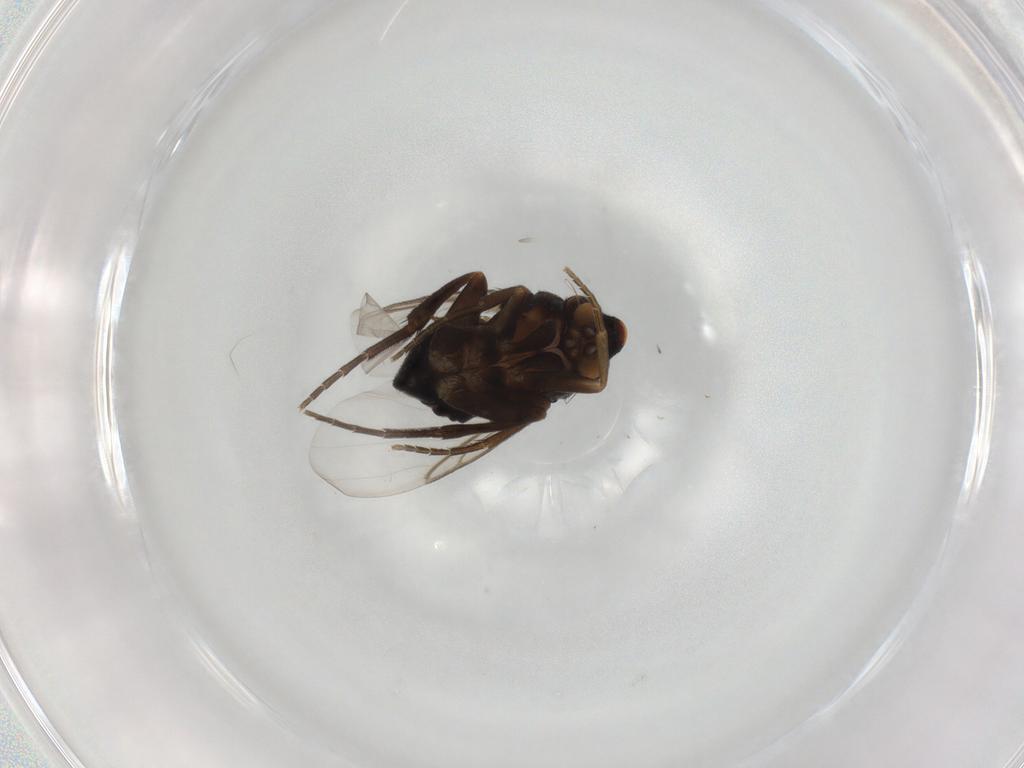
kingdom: Animalia
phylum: Arthropoda
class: Insecta
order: Diptera
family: Phoridae
